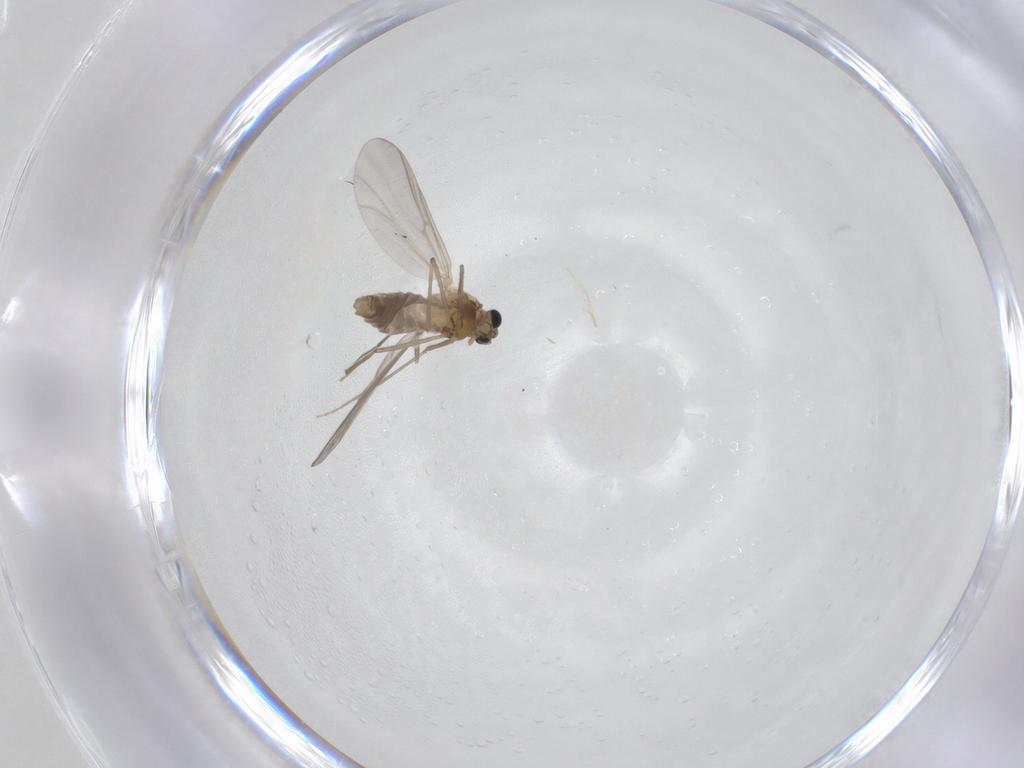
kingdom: Animalia
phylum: Arthropoda
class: Insecta
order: Diptera
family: Chironomidae
